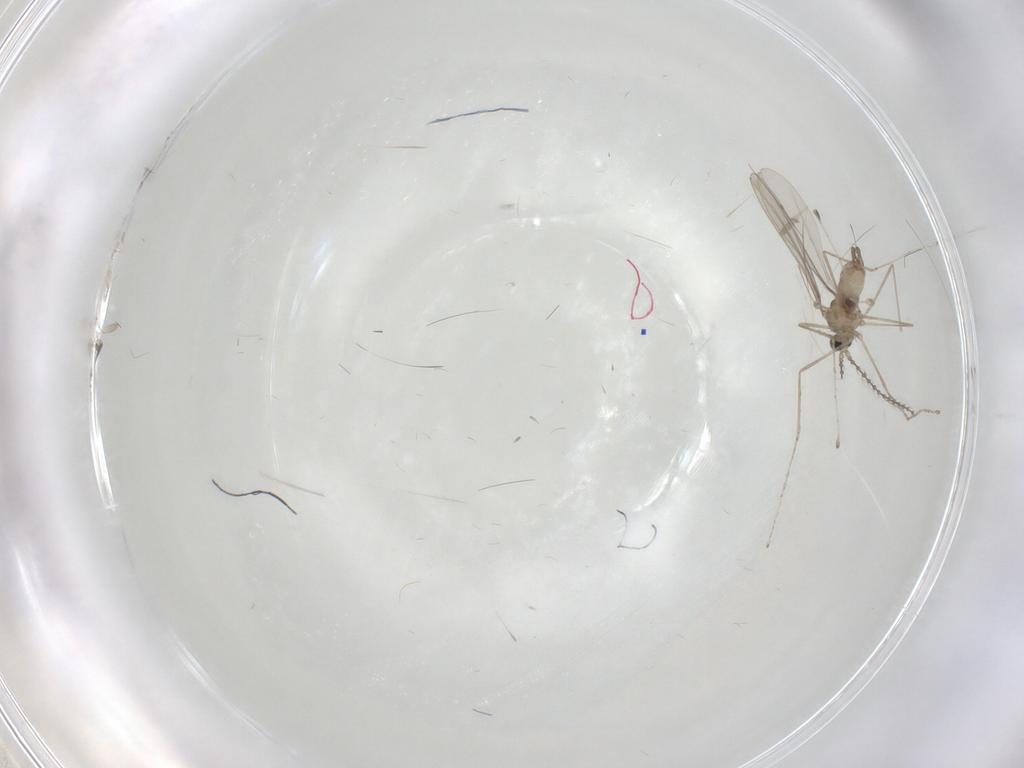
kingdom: Animalia
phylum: Arthropoda
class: Insecta
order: Diptera
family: Cecidomyiidae
